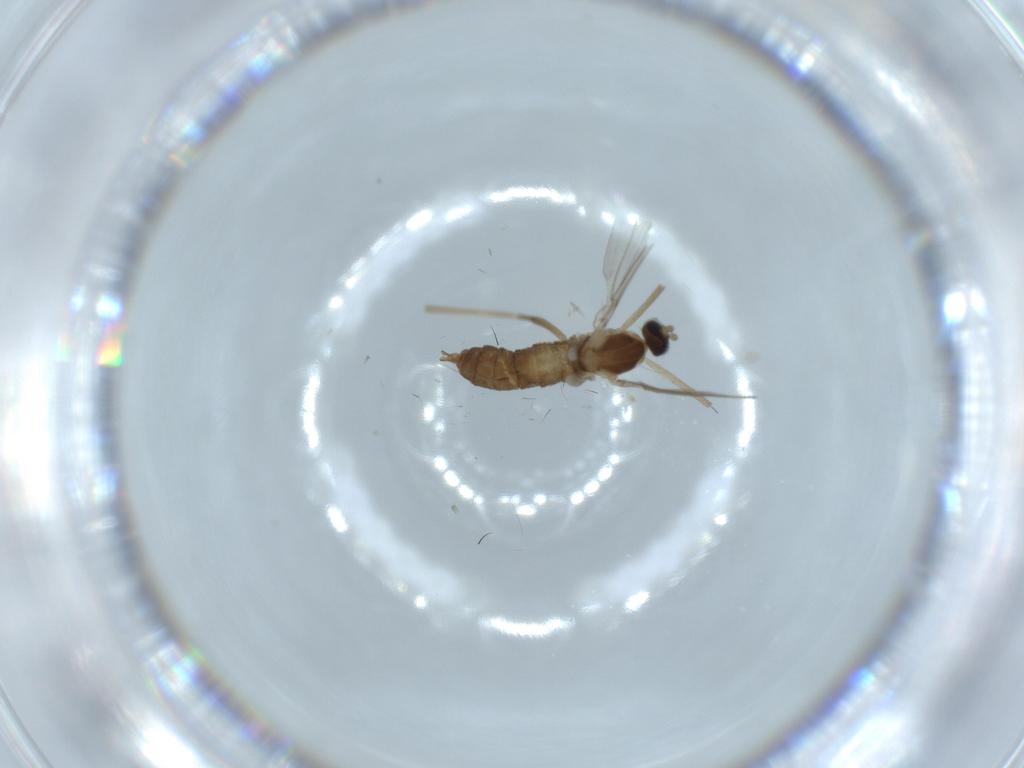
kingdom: Animalia
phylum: Arthropoda
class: Insecta
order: Diptera
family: Cecidomyiidae
